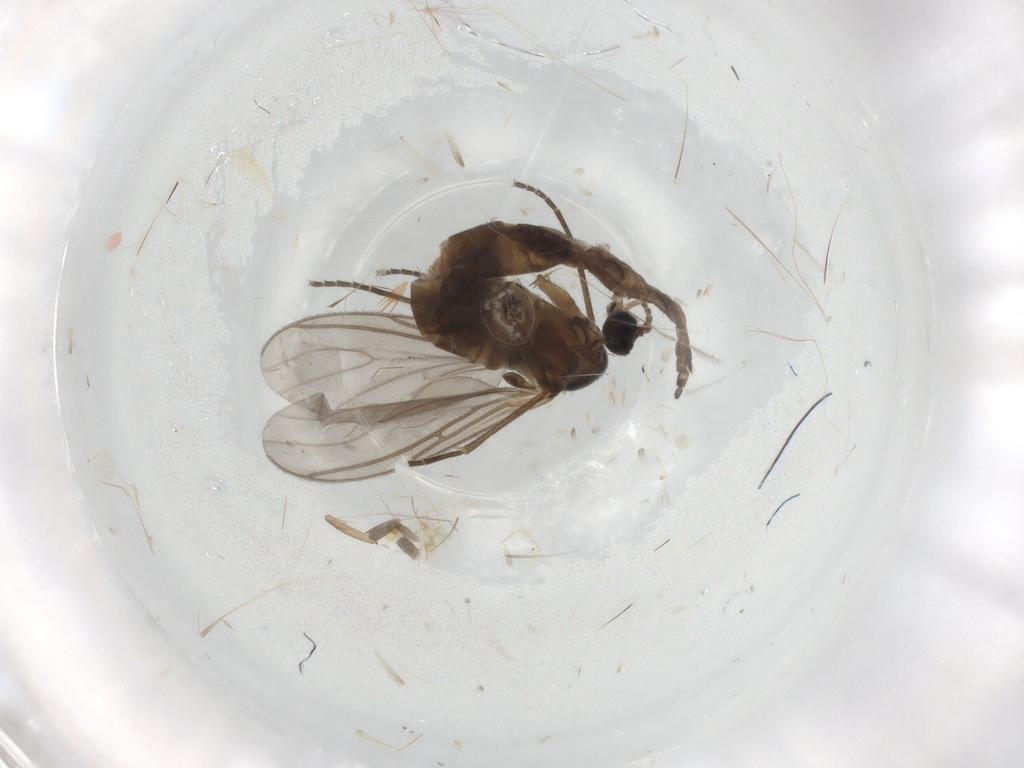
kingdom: Animalia
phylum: Arthropoda
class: Insecta
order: Diptera
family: Sciaridae
